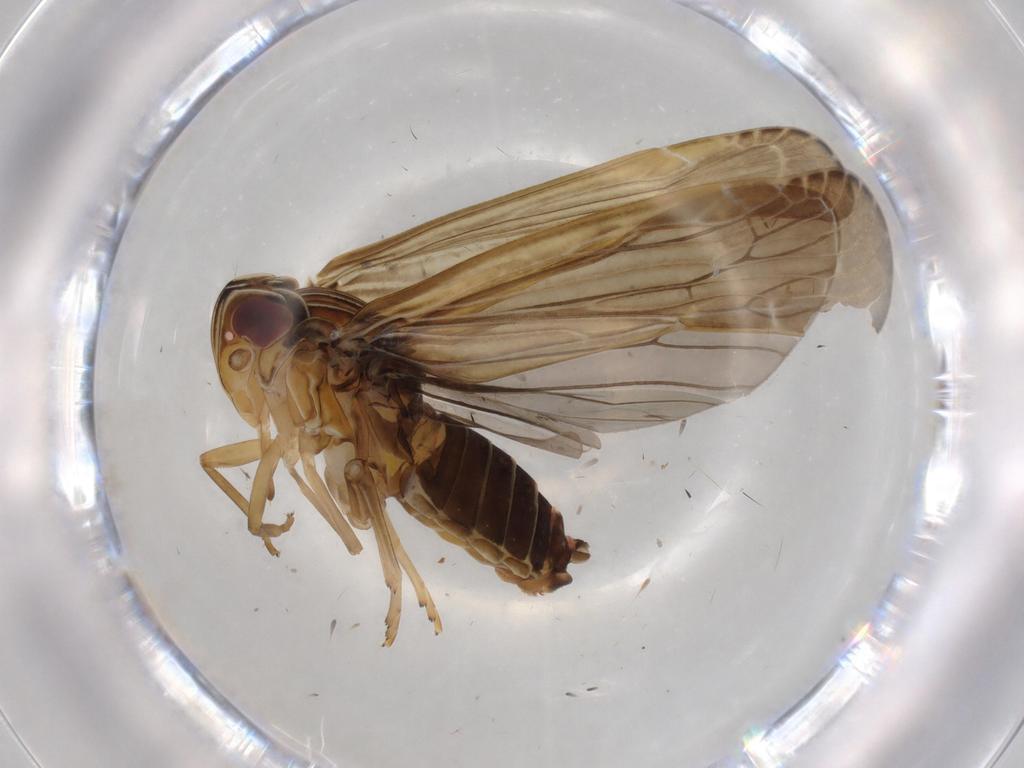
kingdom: Animalia
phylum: Arthropoda
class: Insecta
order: Hemiptera
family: Achilidae
